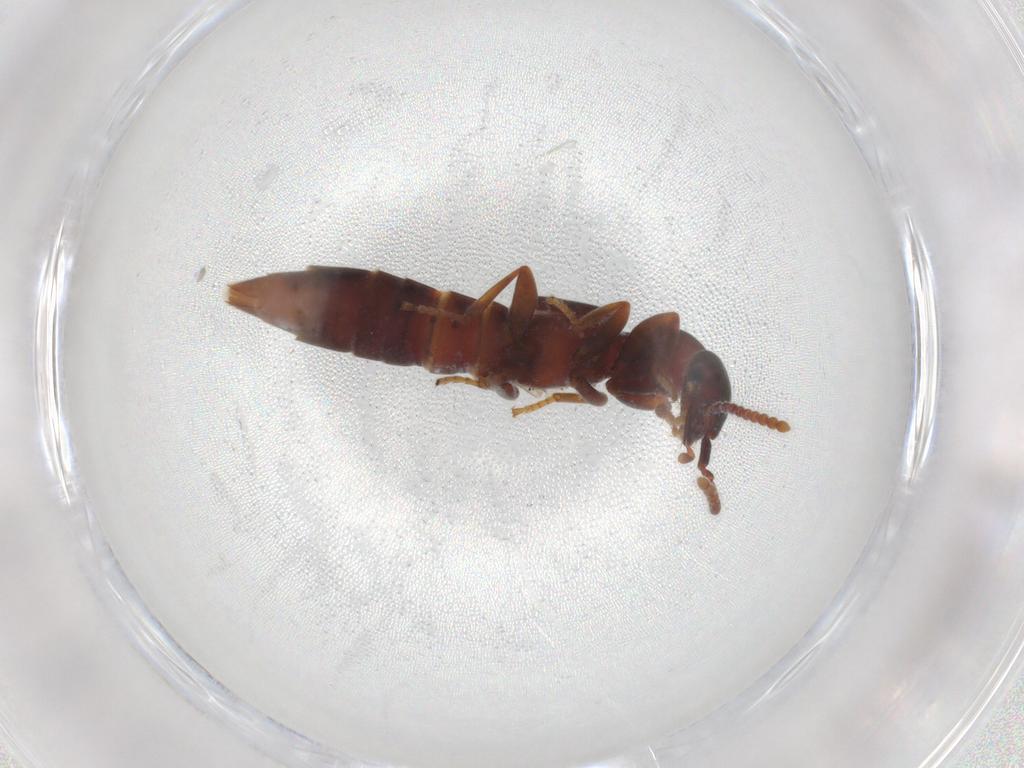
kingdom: Animalia
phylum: Arthropoda
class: Insecta
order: Coleoptera
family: Staphylinidae
